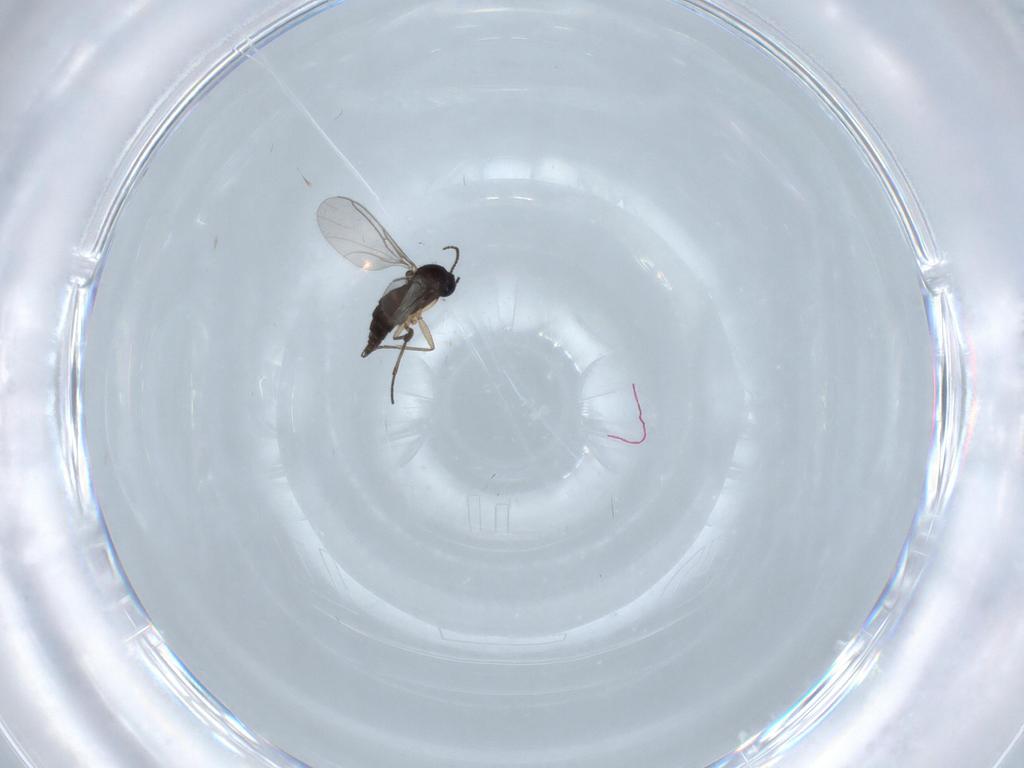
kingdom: Animalia
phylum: Arthropoda
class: Insecta
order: Diptera
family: Sciaridae
